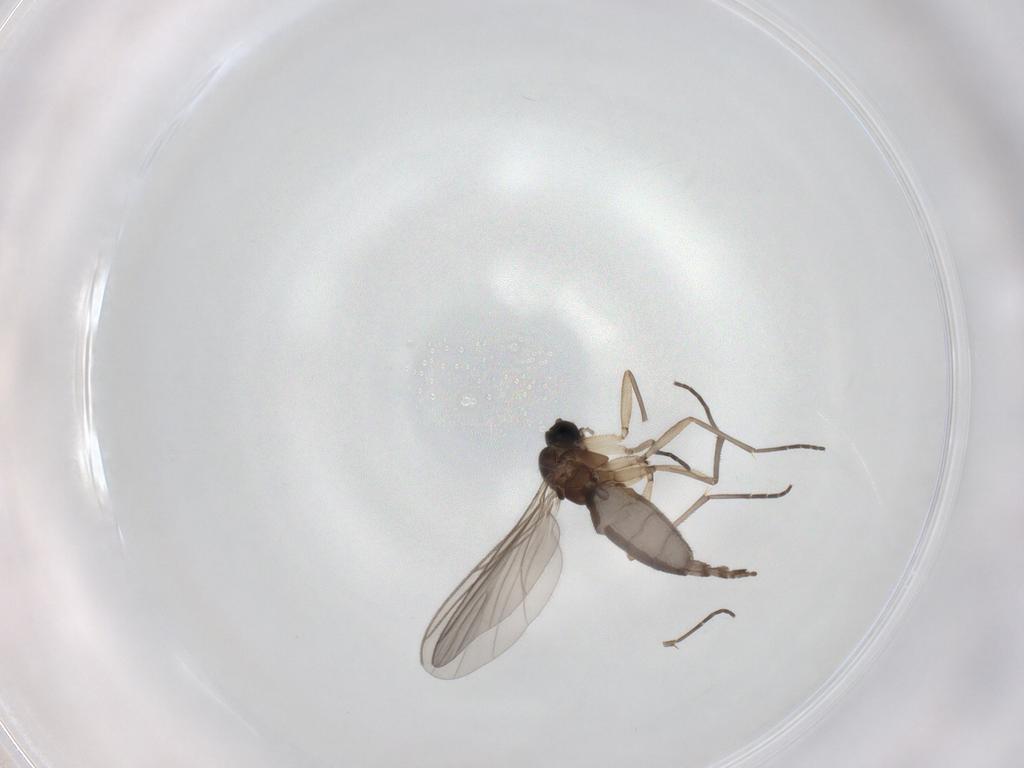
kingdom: Animalia
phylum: Arthropoda
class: Insecta
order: Diptera
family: Sciaridae
